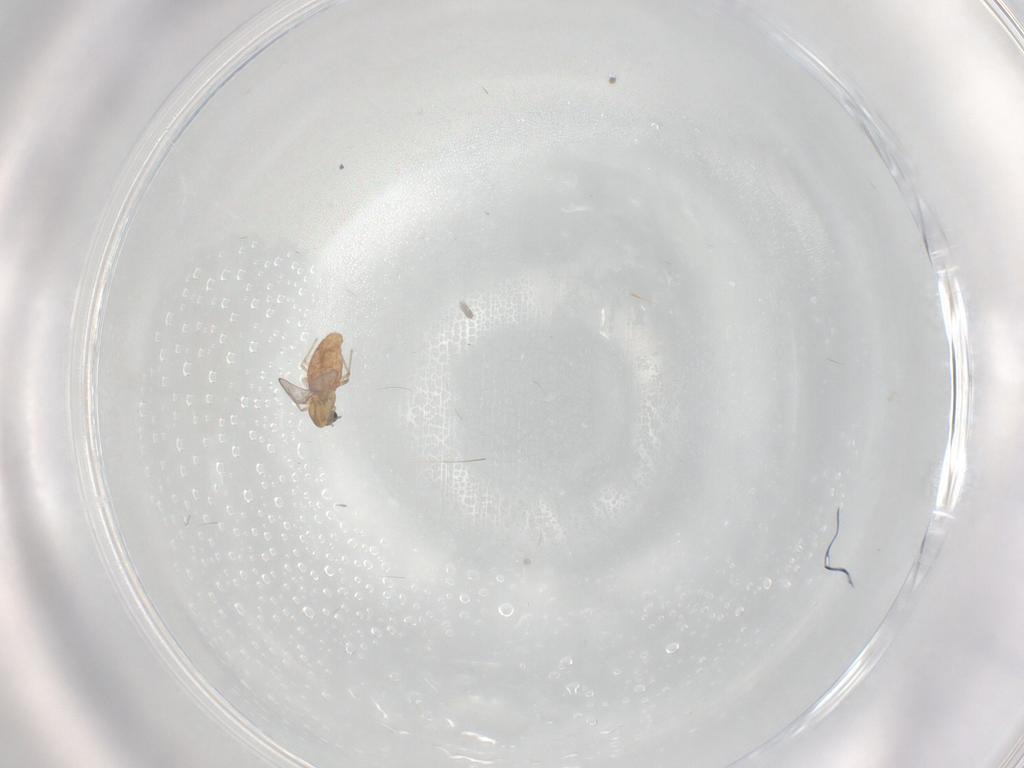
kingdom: Animalia
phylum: Arthropoda
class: Insecta
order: Diptera
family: Chironomidae
